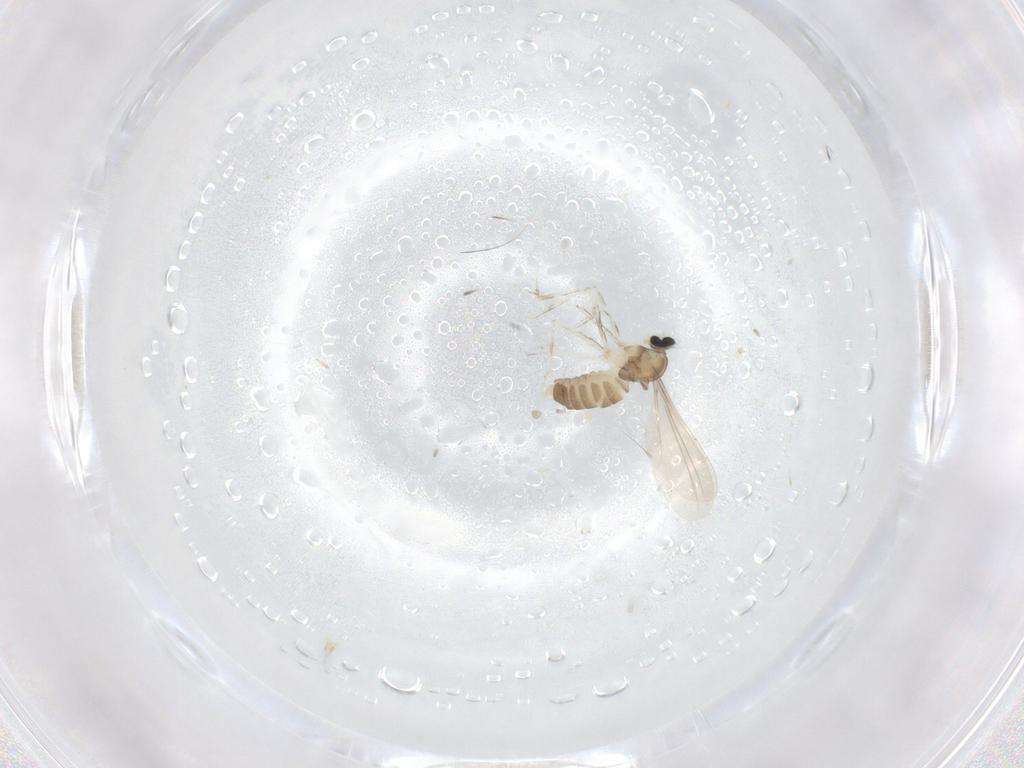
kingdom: Animalia
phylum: Arthropoda
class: Insecta
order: Diptera
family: Cecidomyiidae
